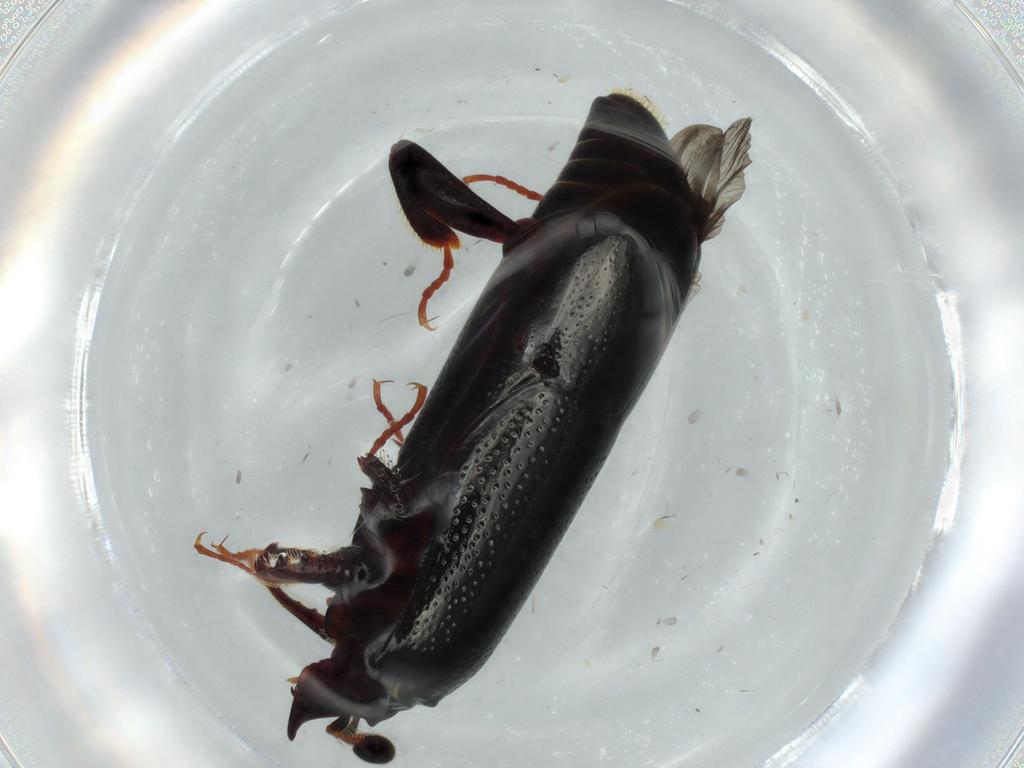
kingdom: Animalia
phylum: Arthropoda
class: Insecta
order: Coleoptera
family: Histeridae
